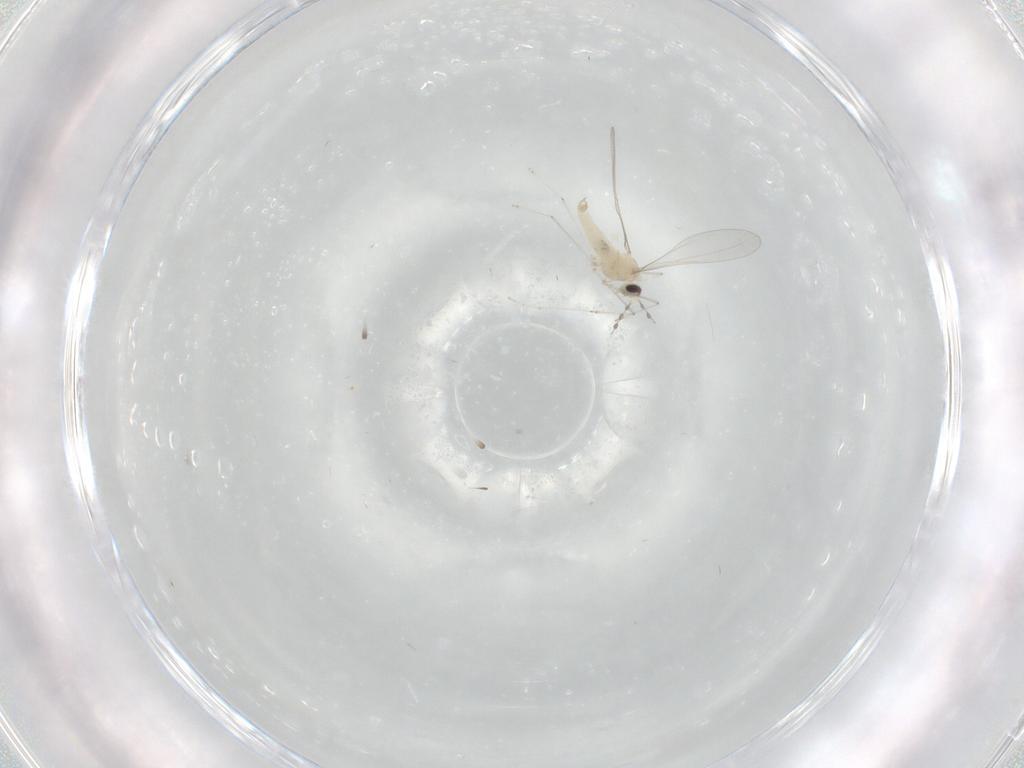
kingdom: Animalia
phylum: Arthropoda
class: Insecta
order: Diptera
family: Cecidomyiidae
